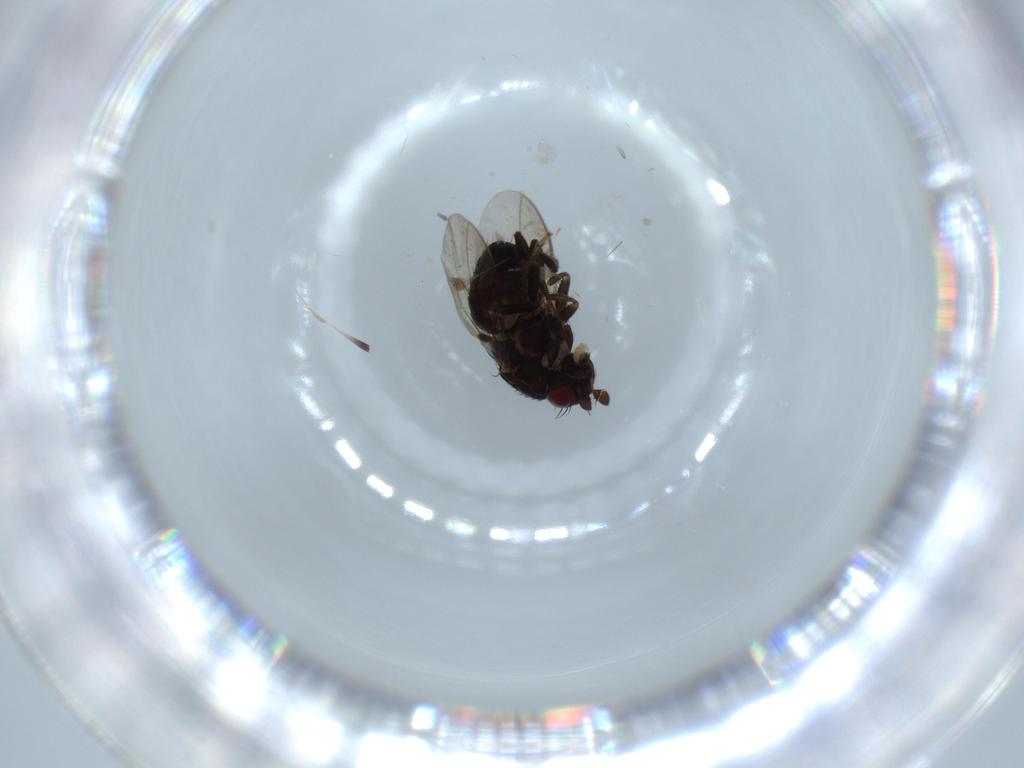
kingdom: Animalia
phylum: Arthropoda
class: Insecta
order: Diptera
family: Sphaeroceridae
